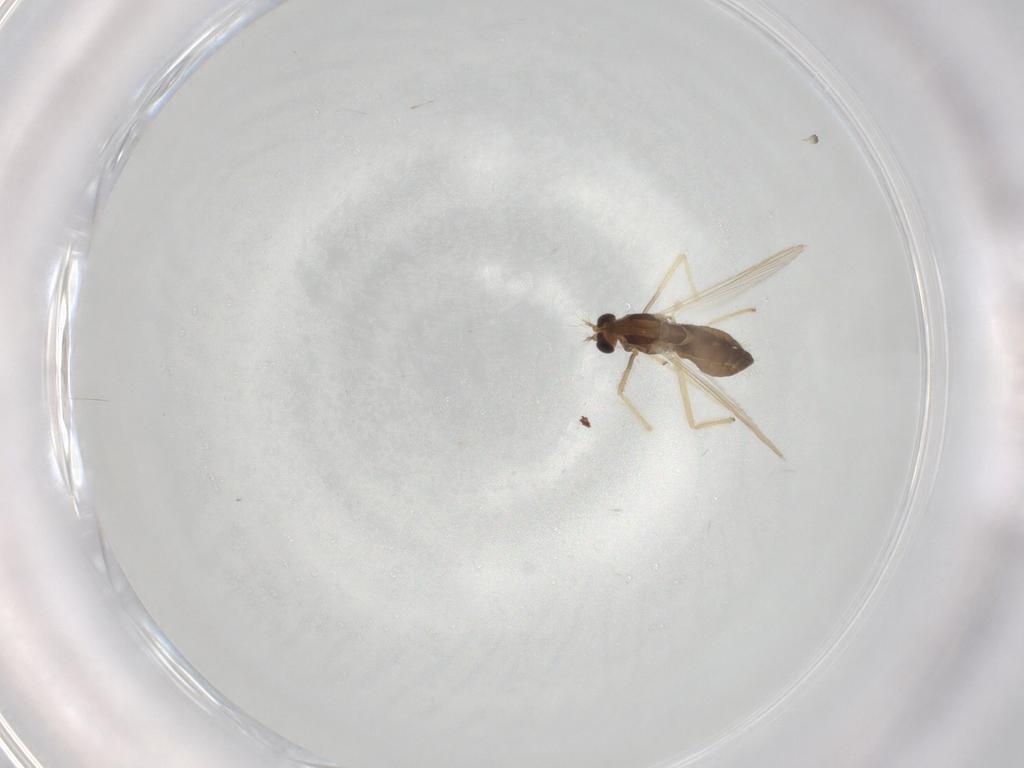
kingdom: Animalia
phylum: Arthropoda
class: Insecta
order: Diptera
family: Chironomidae
